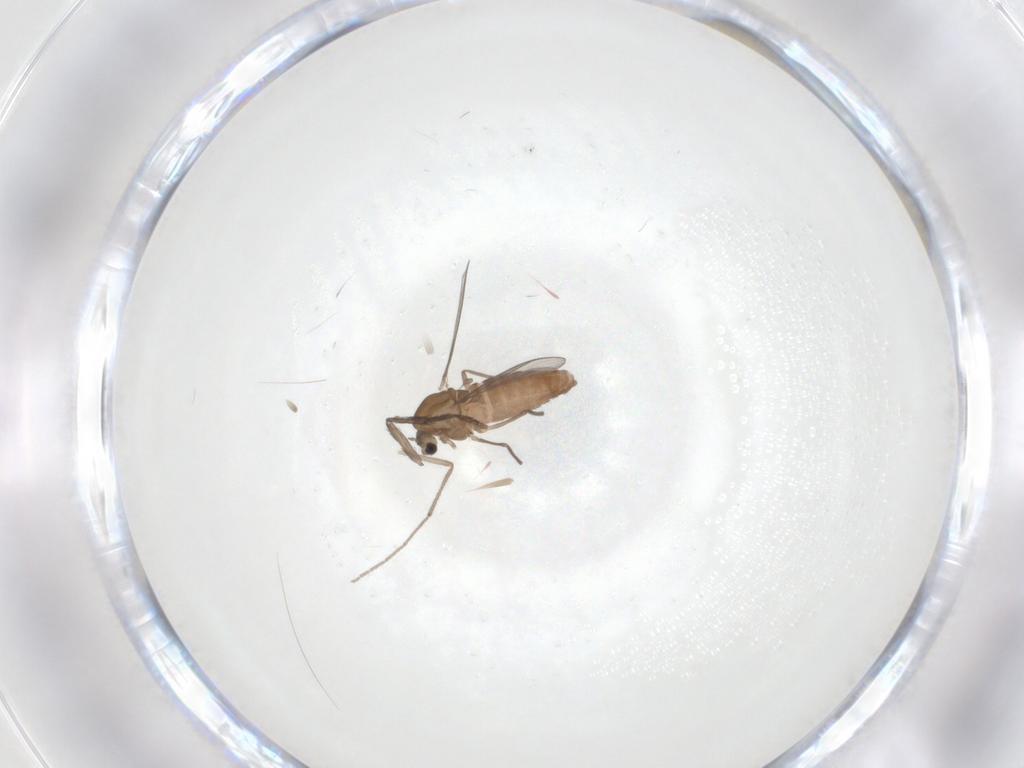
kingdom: Animalia
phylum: Arthropoda
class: Insecta
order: Diptera
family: Chironomidae
